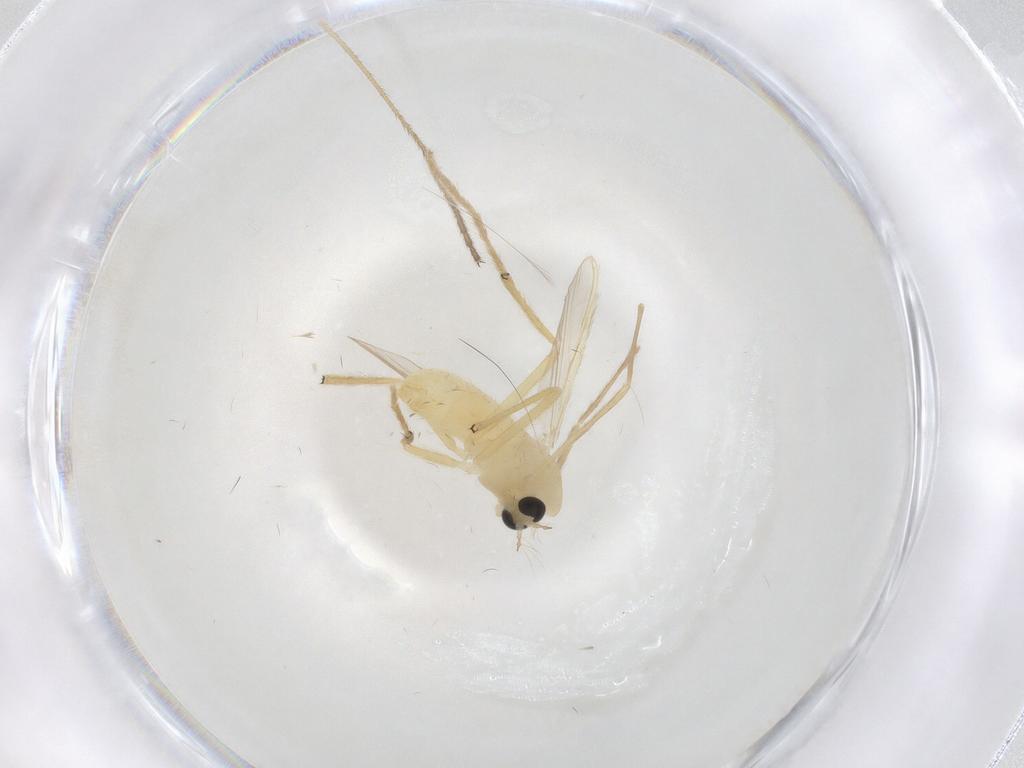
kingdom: Animalia
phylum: Arthropoda
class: Insecta
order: Diptera
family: Chironomidae
